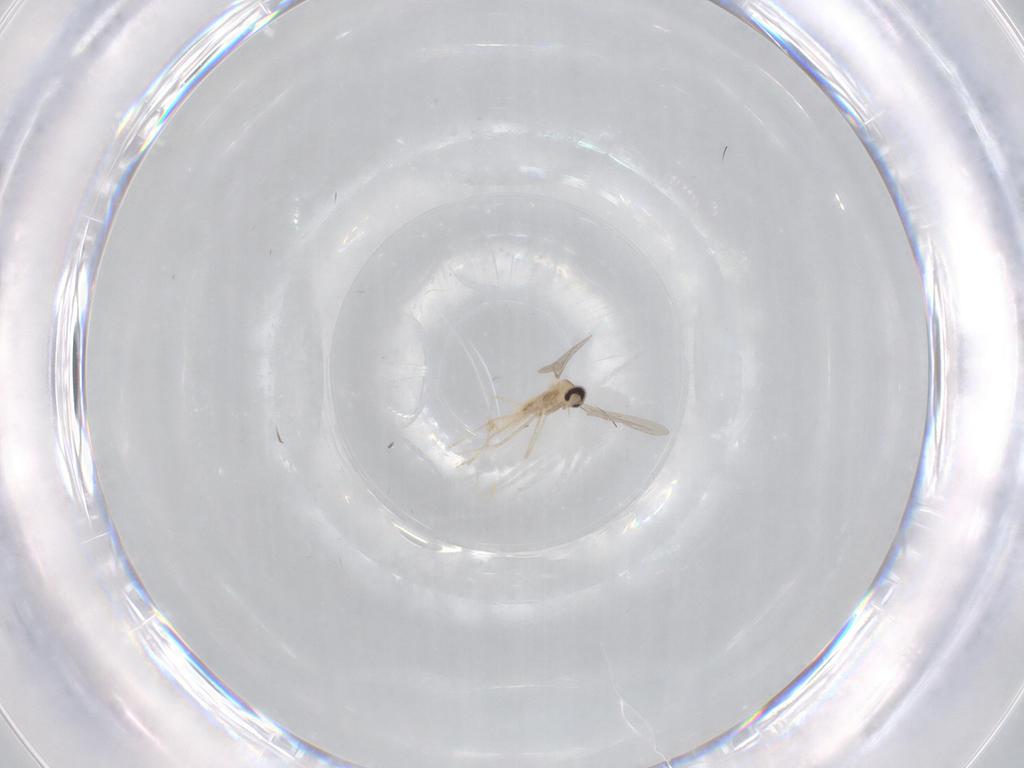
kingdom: Animalia
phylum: Arthropoda
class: Insecta
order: Diptera
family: Cecidomyiidae
